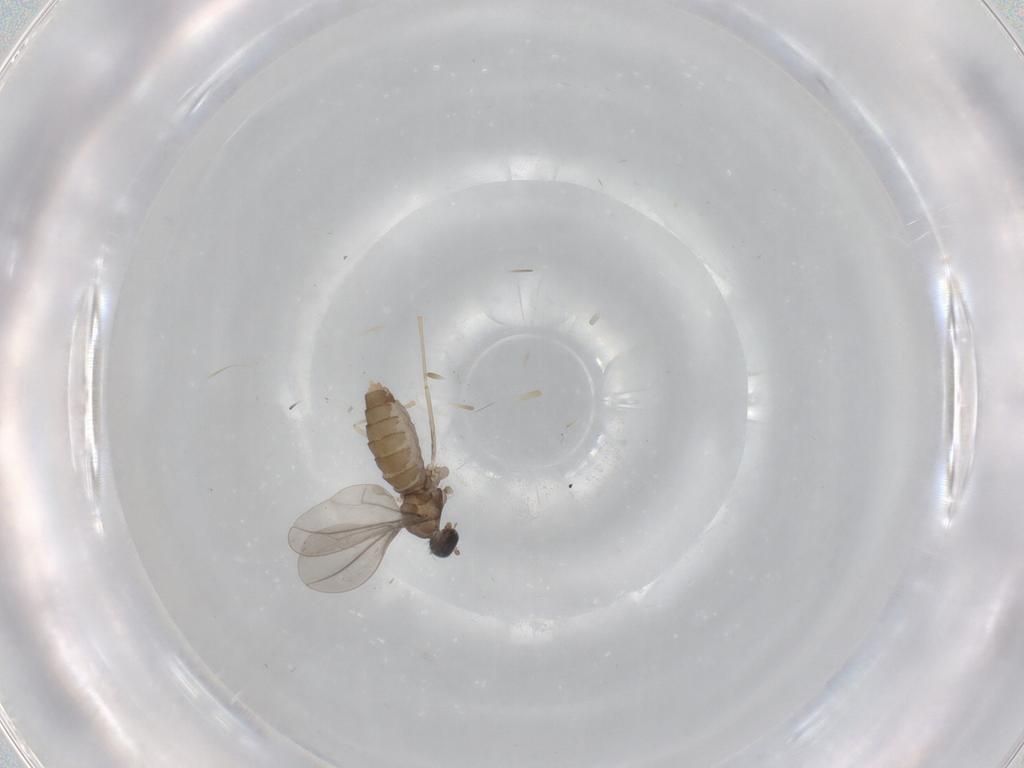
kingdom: Animalia
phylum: Arthropoda
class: Insecta
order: Diptera
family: Cecidomyiidae
